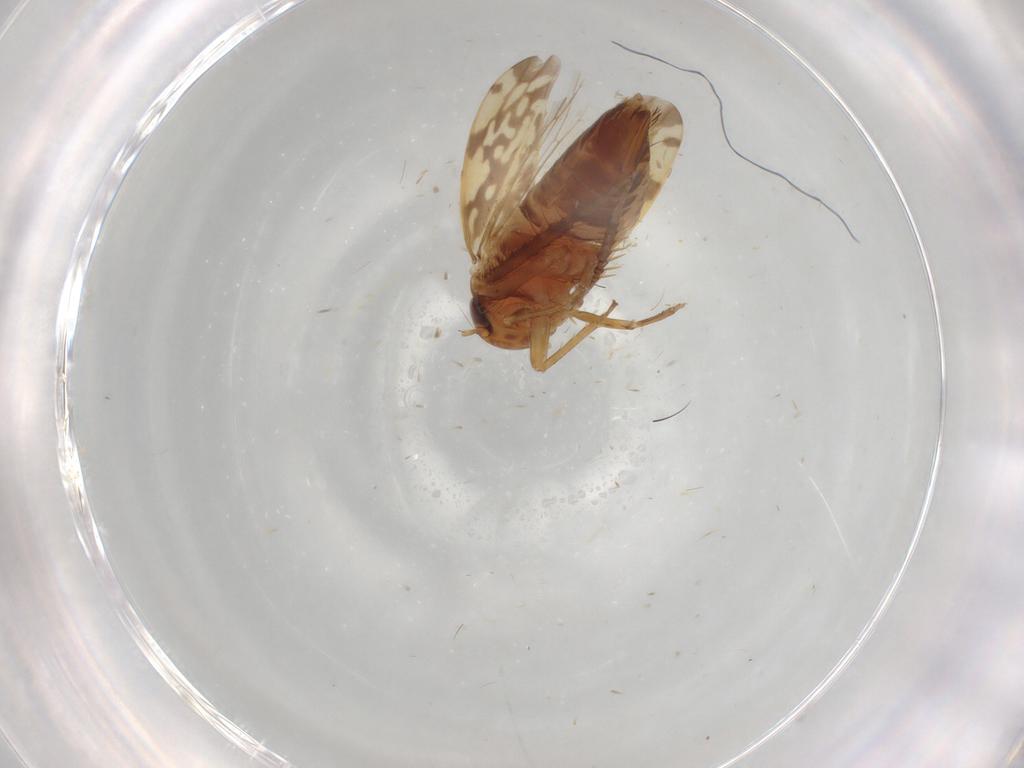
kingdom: Animalia
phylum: Arthropoda
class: Insecta
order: Hemiptera
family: Cicadellidae
